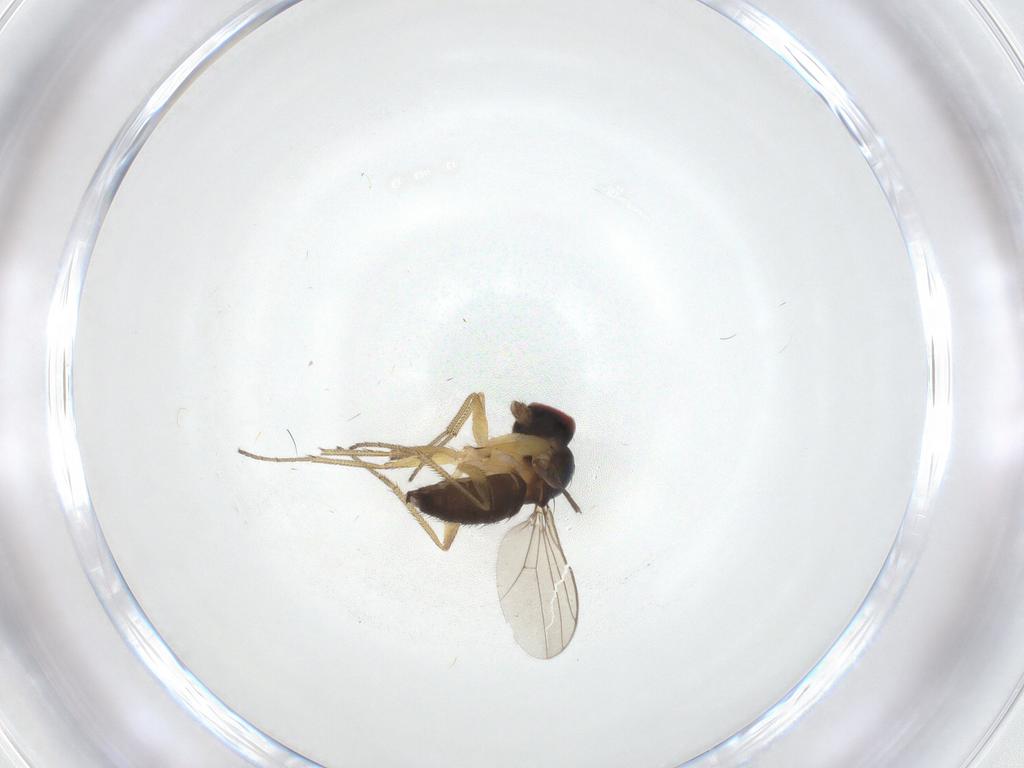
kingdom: Animalia
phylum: Arthropoda
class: Insecta
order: Diptera
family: Dolichopodidae
